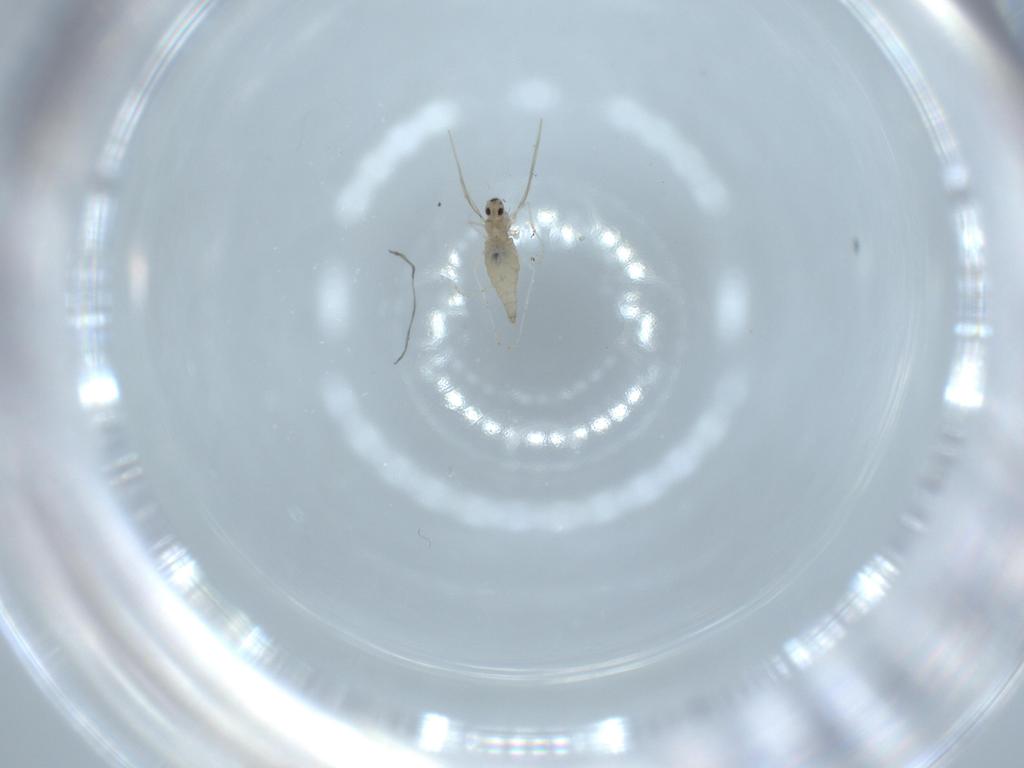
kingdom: Animalia
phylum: Arthropoda
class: Insecta
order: Diptera
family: Cecidomyiidae
